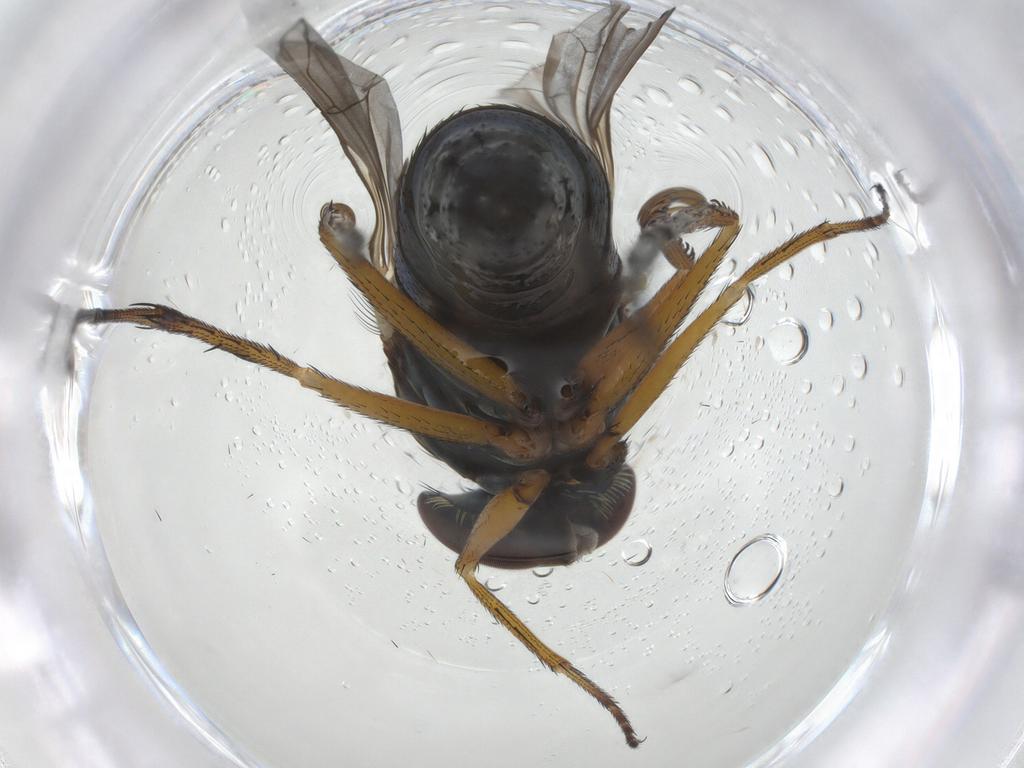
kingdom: Animalia
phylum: Arthropoda
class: Insecta
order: Diptera
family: Dolichopodidae
